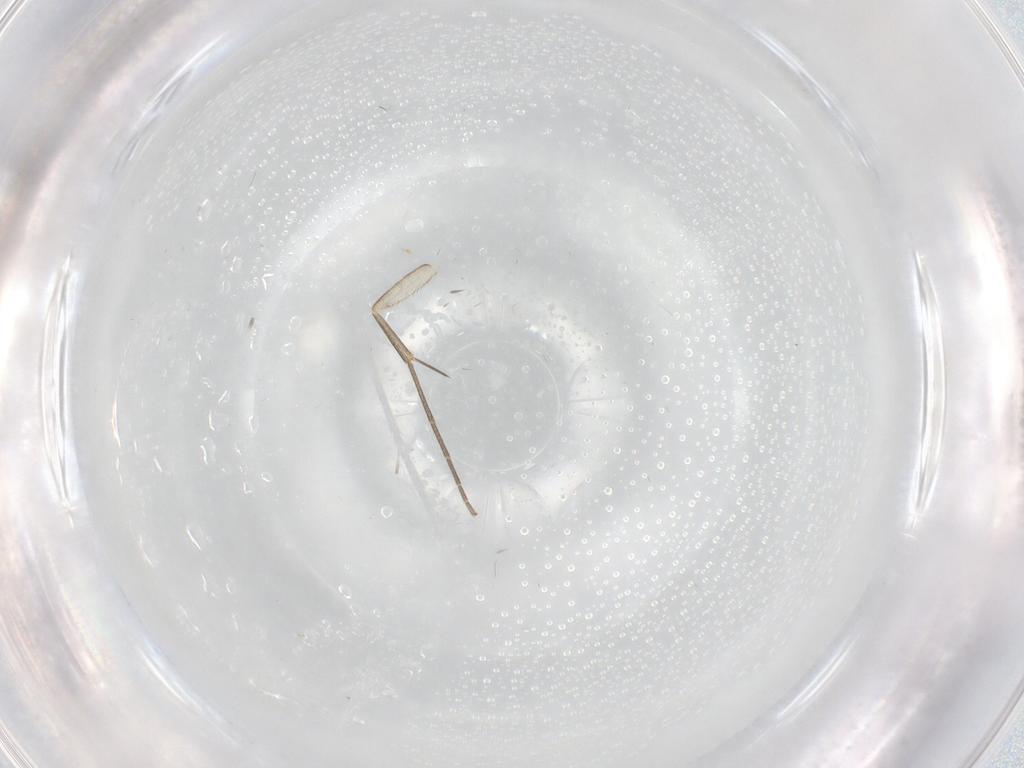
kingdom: Animalia
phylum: Arthropoda
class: Insecta
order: Diptera
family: Mycetophilidae
